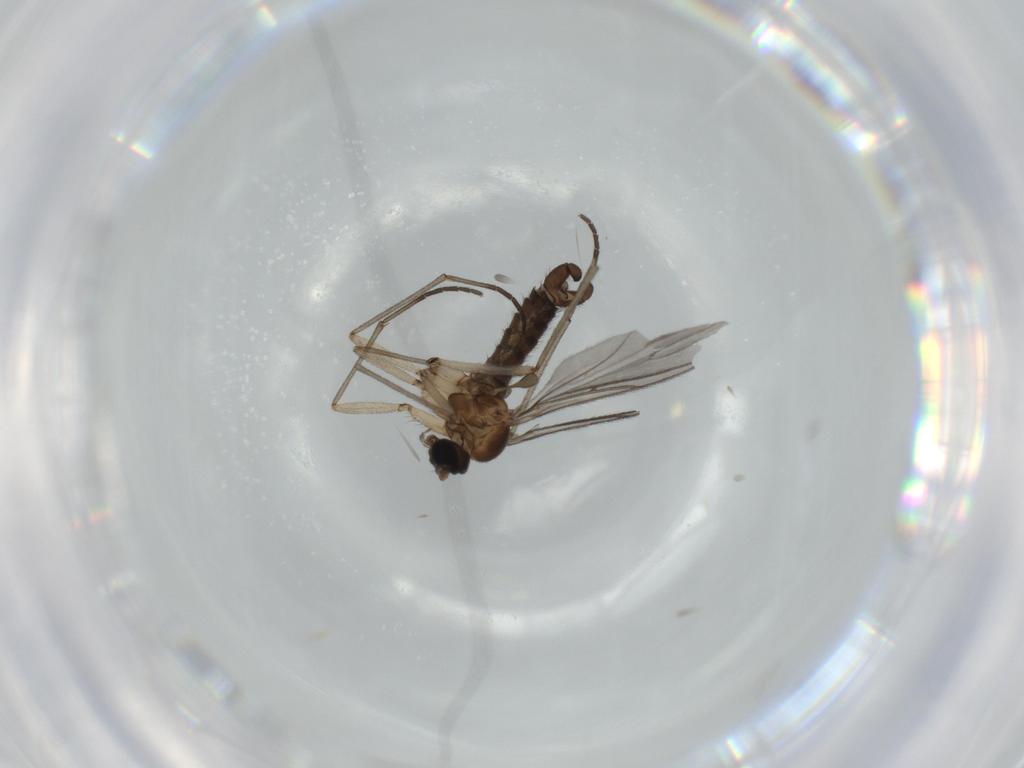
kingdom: Animalia
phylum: Arthropoda
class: Insecta
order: Diptera
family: Sciaridae
